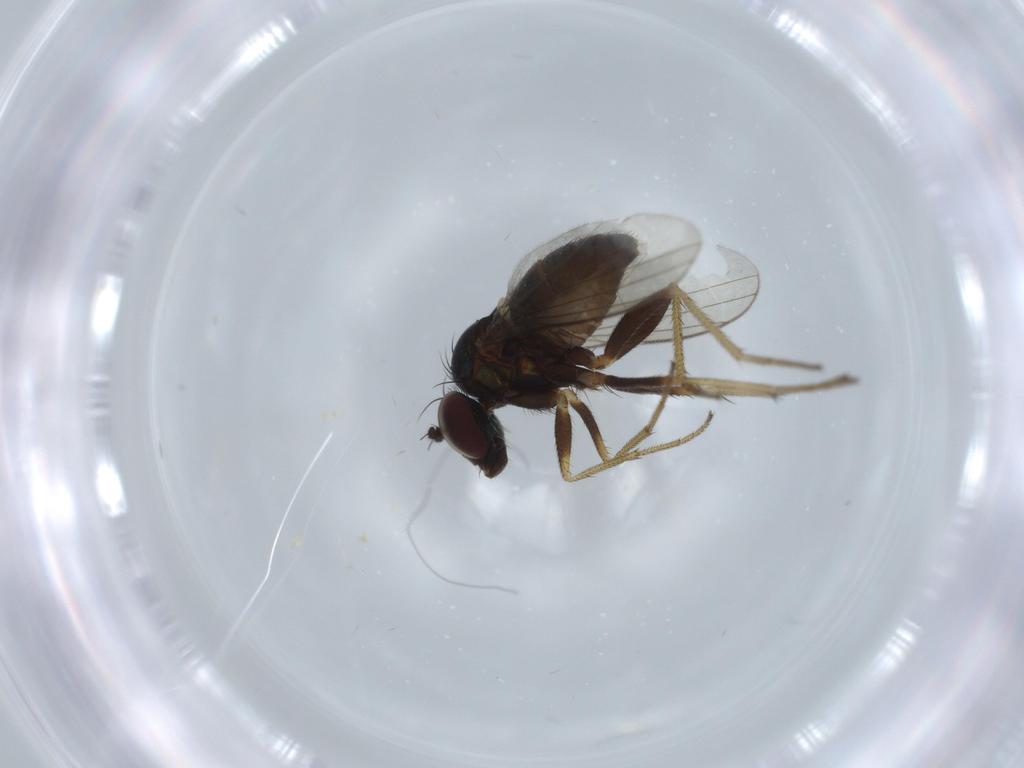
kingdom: Animalia
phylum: Arthropoda
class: Insecta
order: Diptera
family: Dolichopodidae
